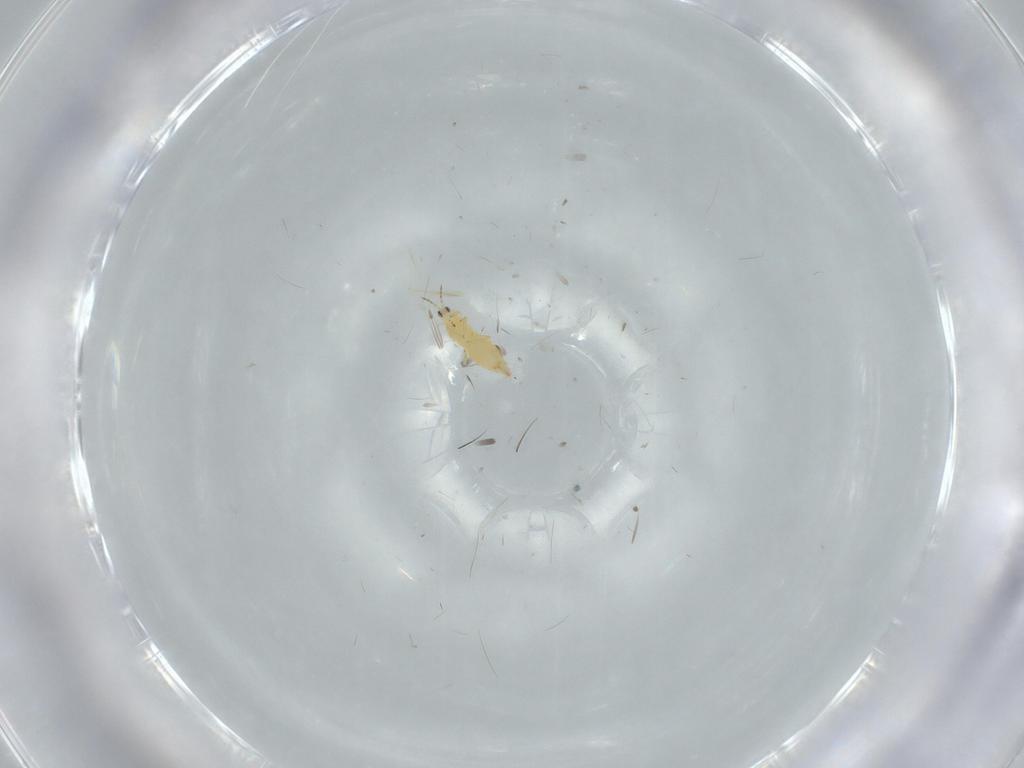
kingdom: Animalia
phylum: Arthropoda
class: Insecta
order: Thysanoptera
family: Thripidae
